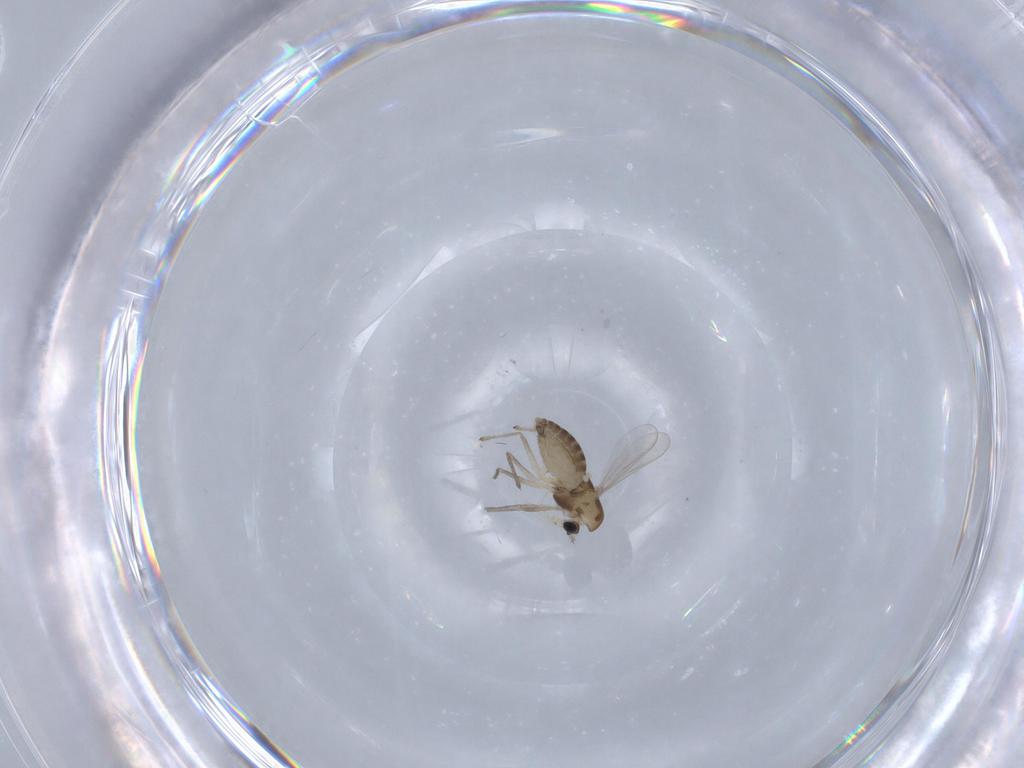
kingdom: Animalia
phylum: Arthropoda
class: Insecta
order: Diptera
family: Chironomidae
